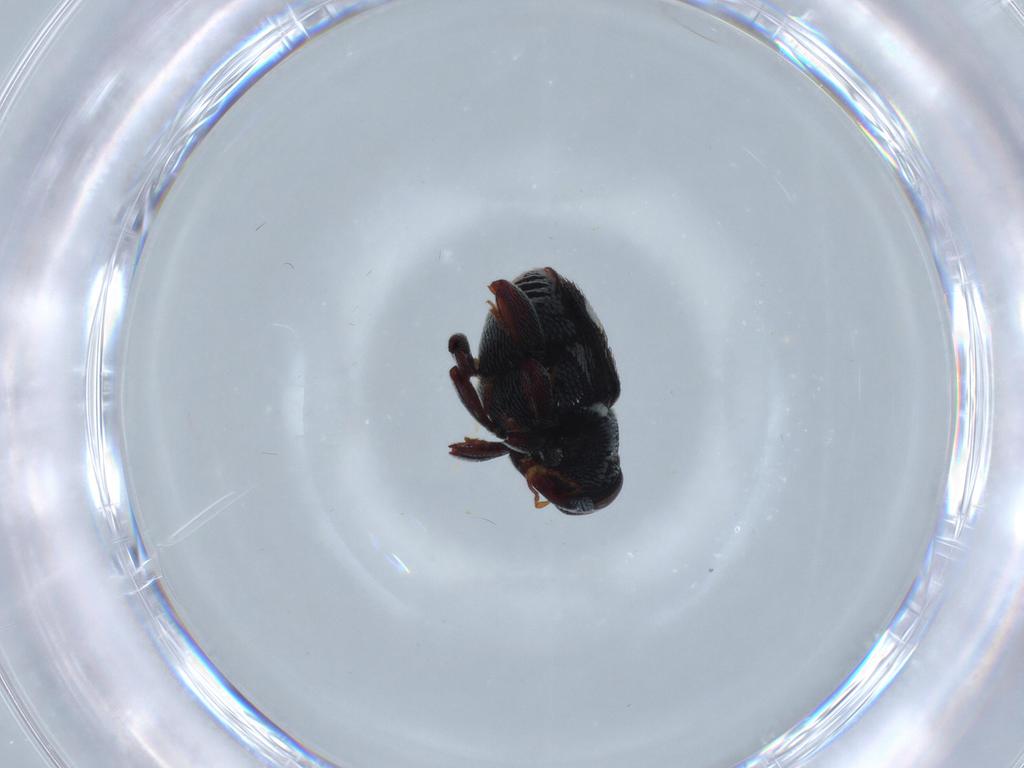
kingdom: Animalia
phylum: Arthropoda
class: Insecta
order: Coleoptera
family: Curculionidae
